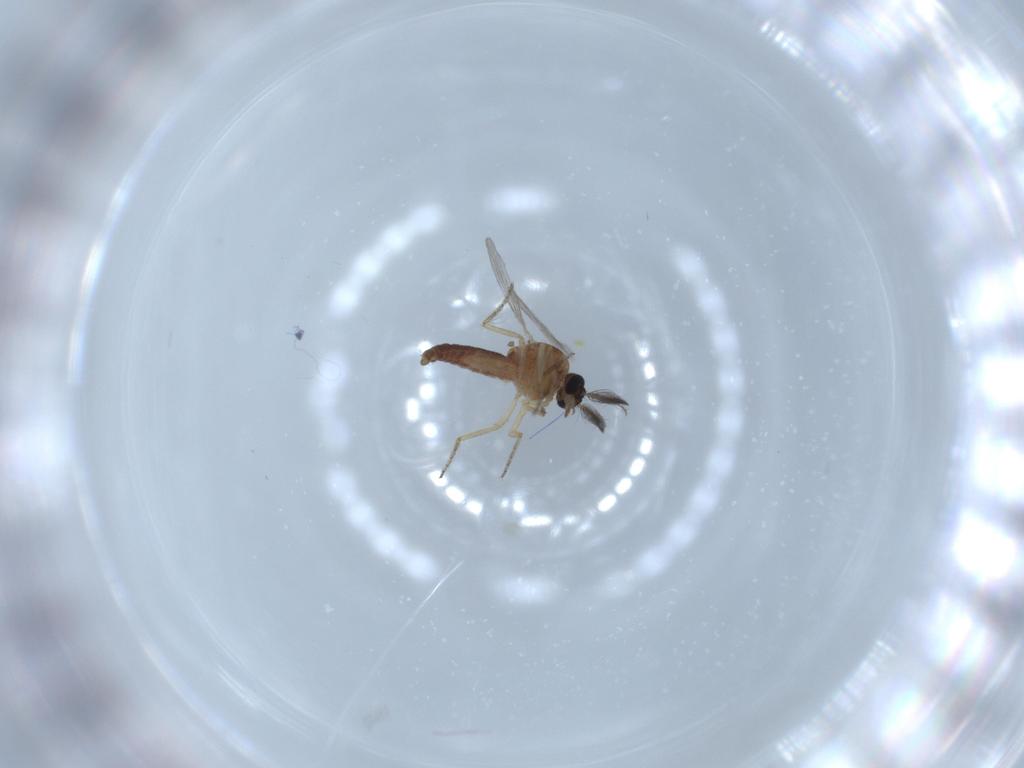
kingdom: Animalia
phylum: Arthropoda
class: Insecta
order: Diptera
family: Ceratopogonidae
